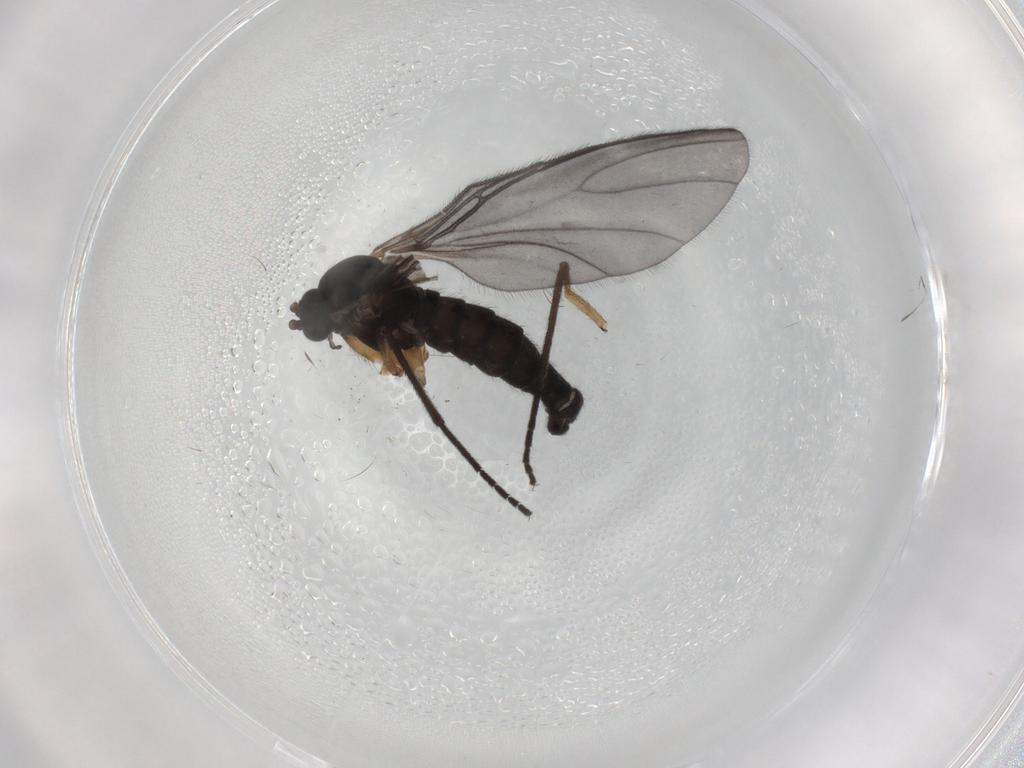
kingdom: Animalia
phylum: Arthropoda
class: Insecta
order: Diptera
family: Sciaridae
